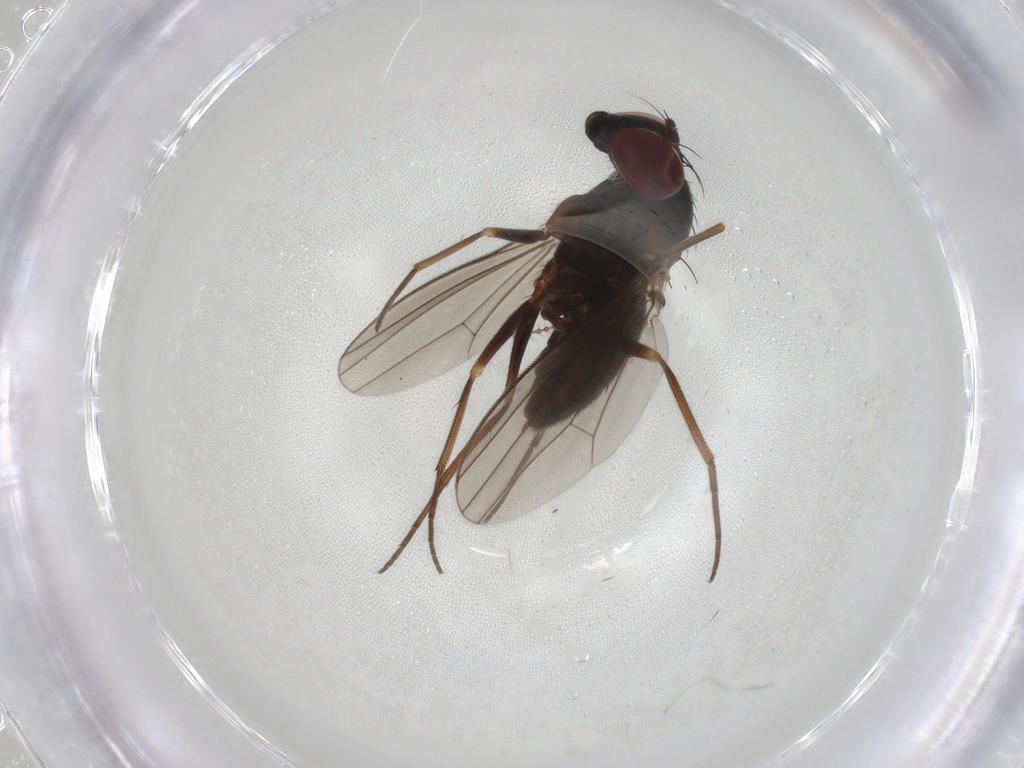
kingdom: Animalia
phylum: Arthropoda
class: Insecta
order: Diptera
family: Dolichopodidae
